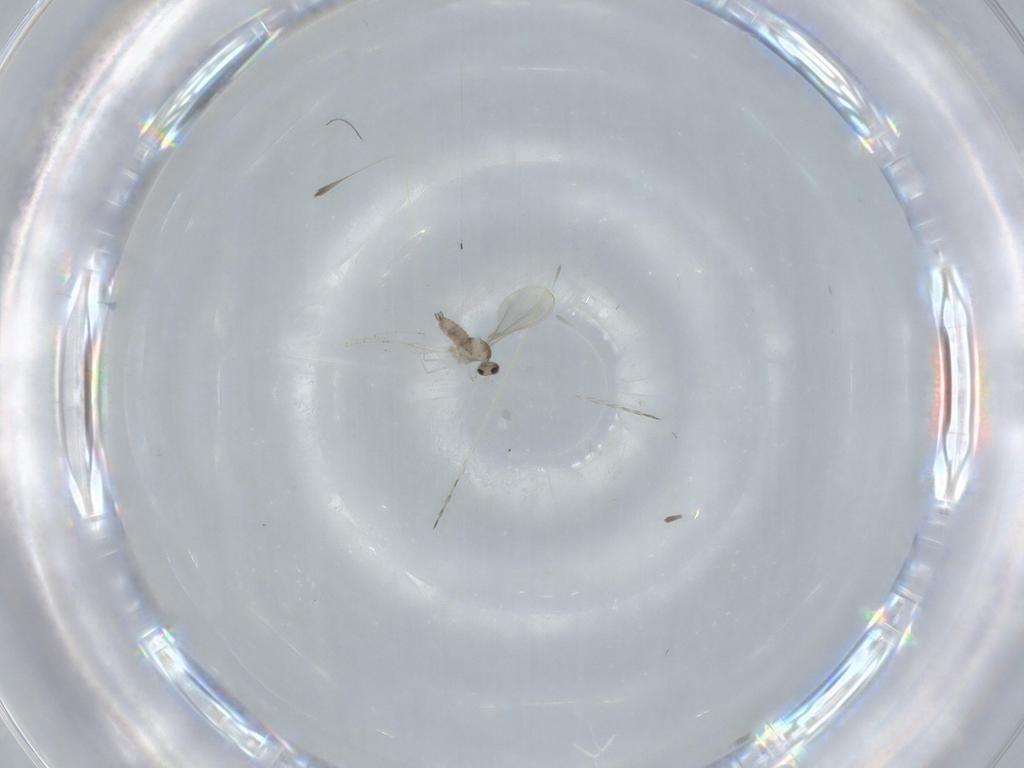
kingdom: Animalia
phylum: Arthropoda
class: Insecta
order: Diptera
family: Cecidomyiidae
